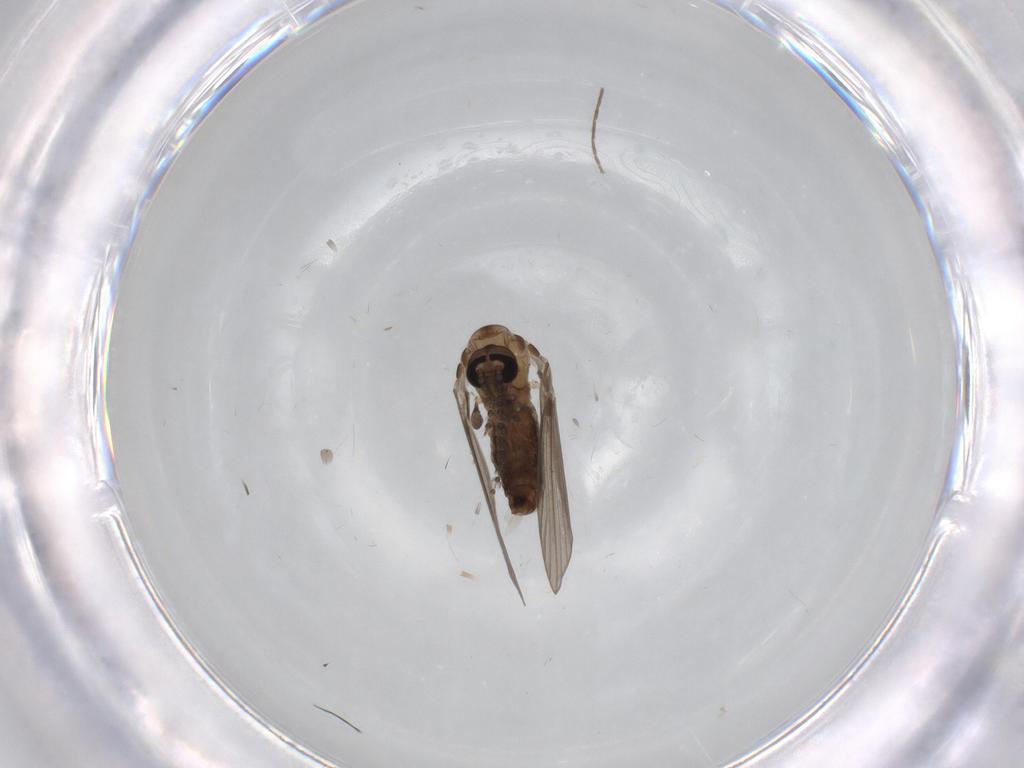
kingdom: Animalia
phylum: Arthropoda
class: Insecta
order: Diptera
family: Psychodidae
